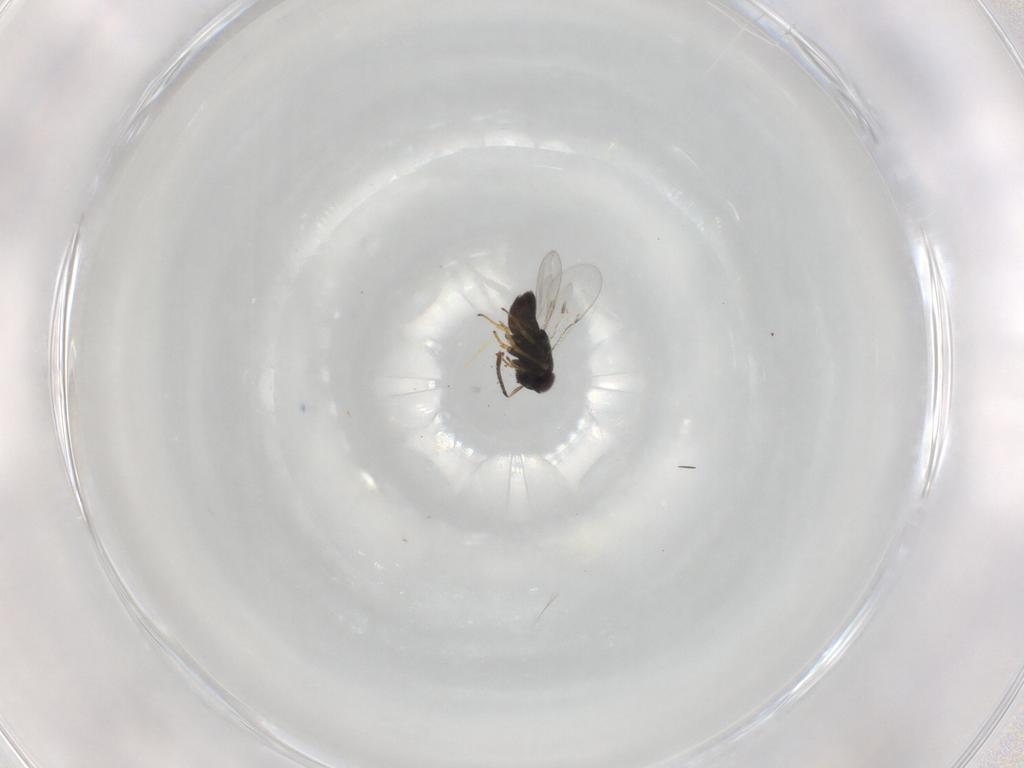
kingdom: Animalia
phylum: Arthropoda
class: Insecta
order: Hymenoptera
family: Encyrtidae
